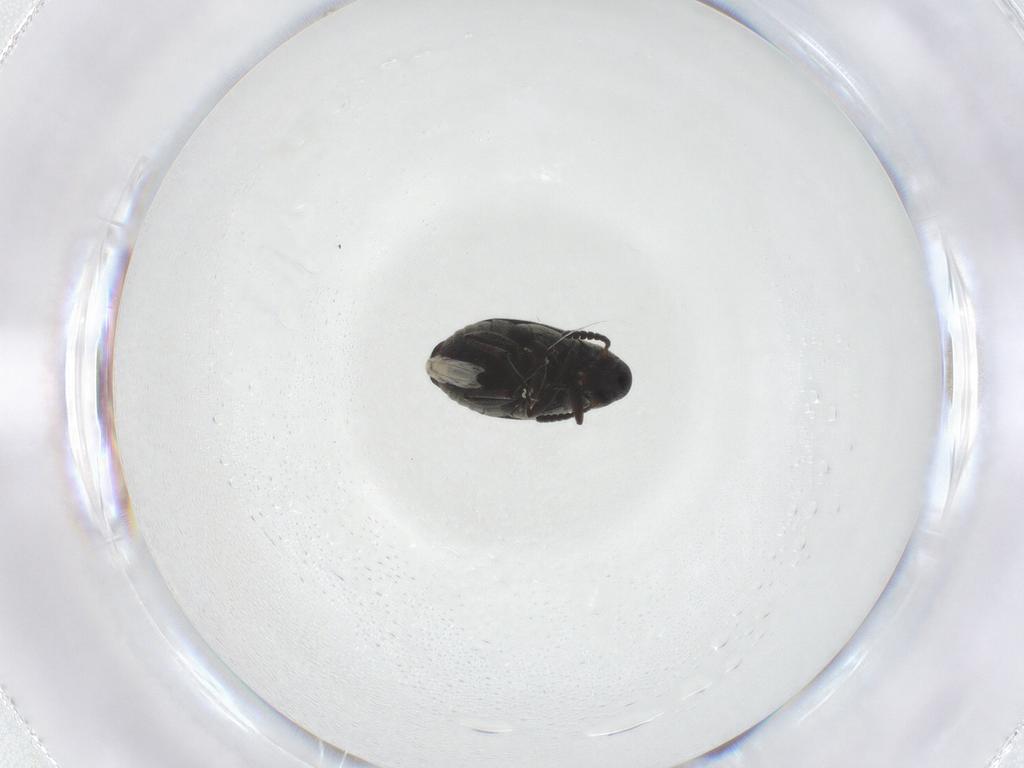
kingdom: Animalia
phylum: Arthropoda
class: Insecta
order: Coleoptera
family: Chrysomelidae
